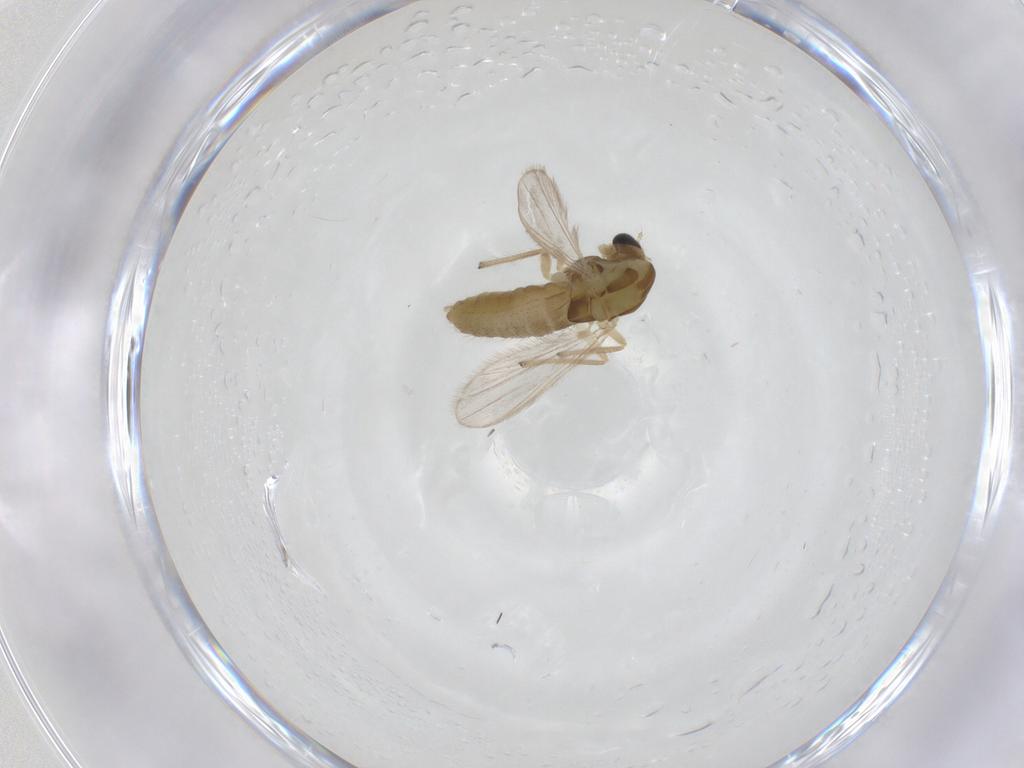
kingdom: Animalia
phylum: Arthropoda
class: Insecta
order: Diptera
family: Chironomidae
